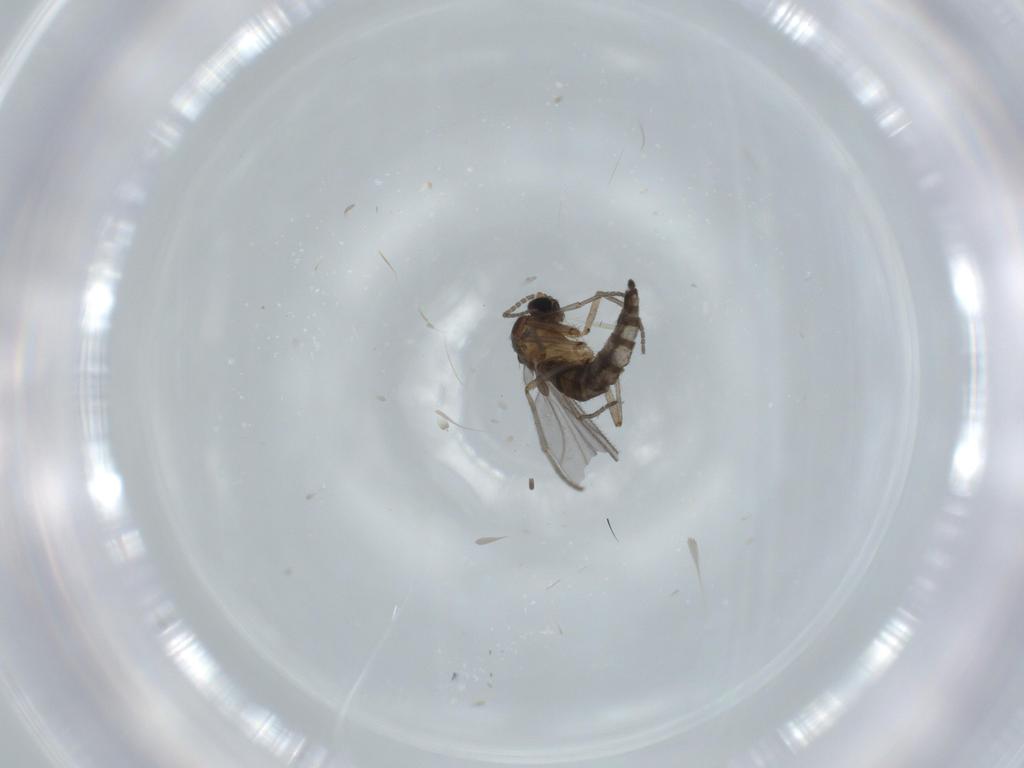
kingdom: Animalia
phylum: Arthropoda
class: Insecta
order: Diptera
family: Sciaridae
